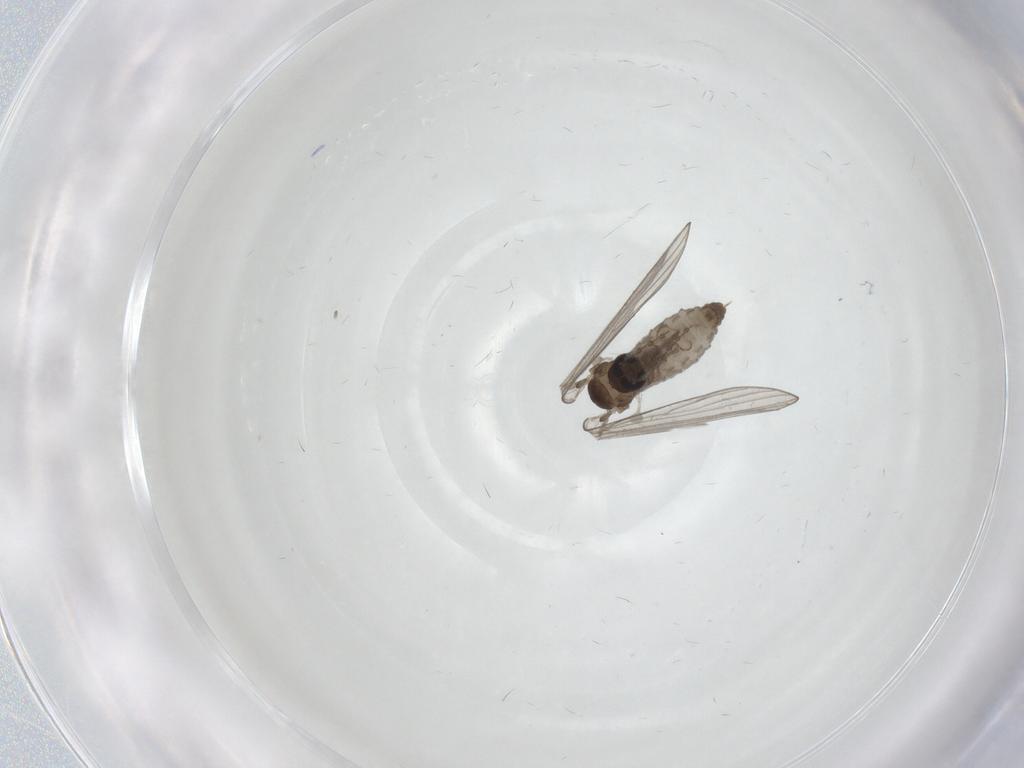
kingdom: Animalia
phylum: Arthropoda
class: Insecta
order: Diptera
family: Psychodidae
